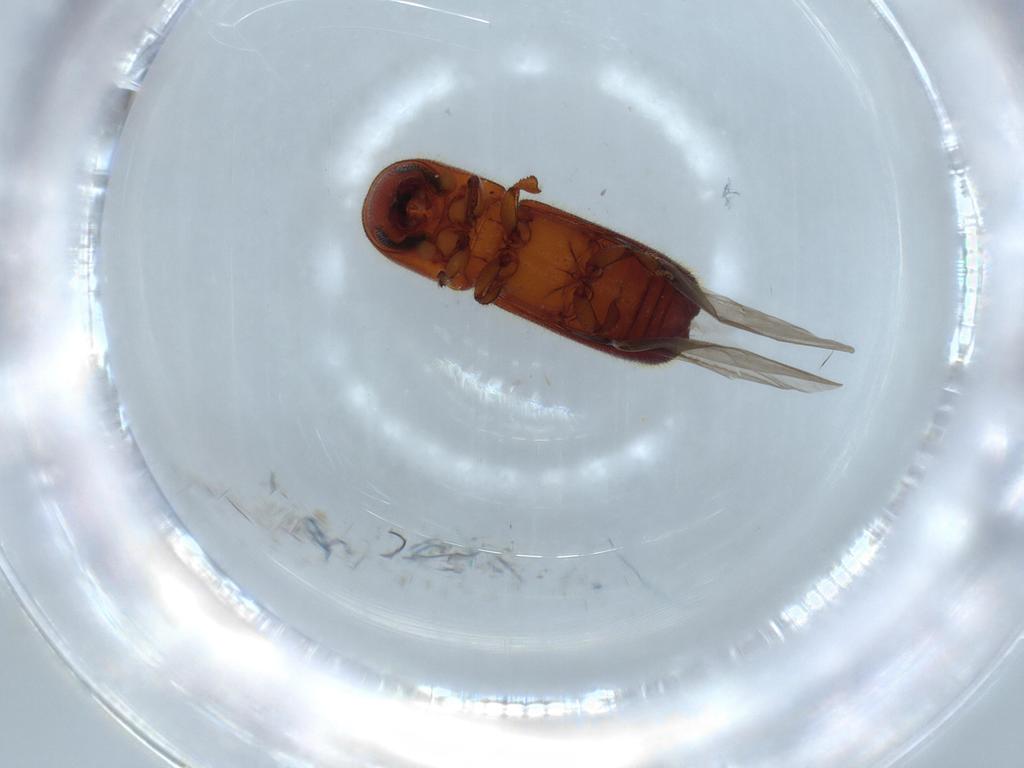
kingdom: Animalia
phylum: Arthropoda
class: Insecta
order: Coleoptera
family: Curculionidae
